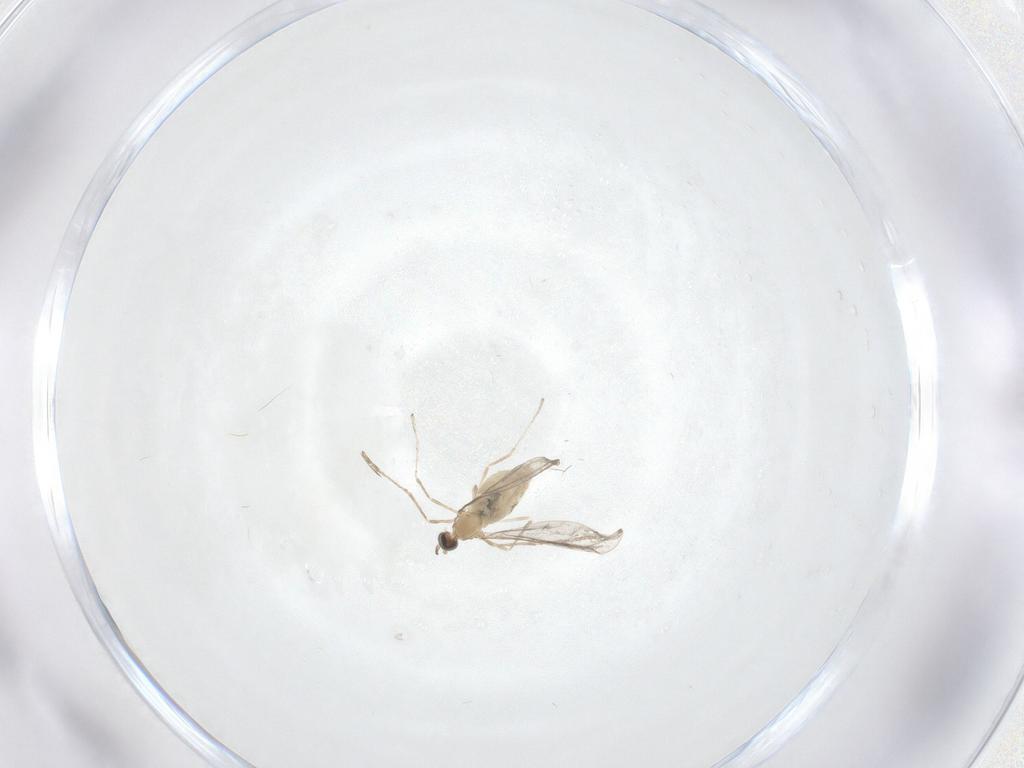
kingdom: Animalia
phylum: Arthropoda
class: Insecta
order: Diptera
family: Cecidomyiidae
